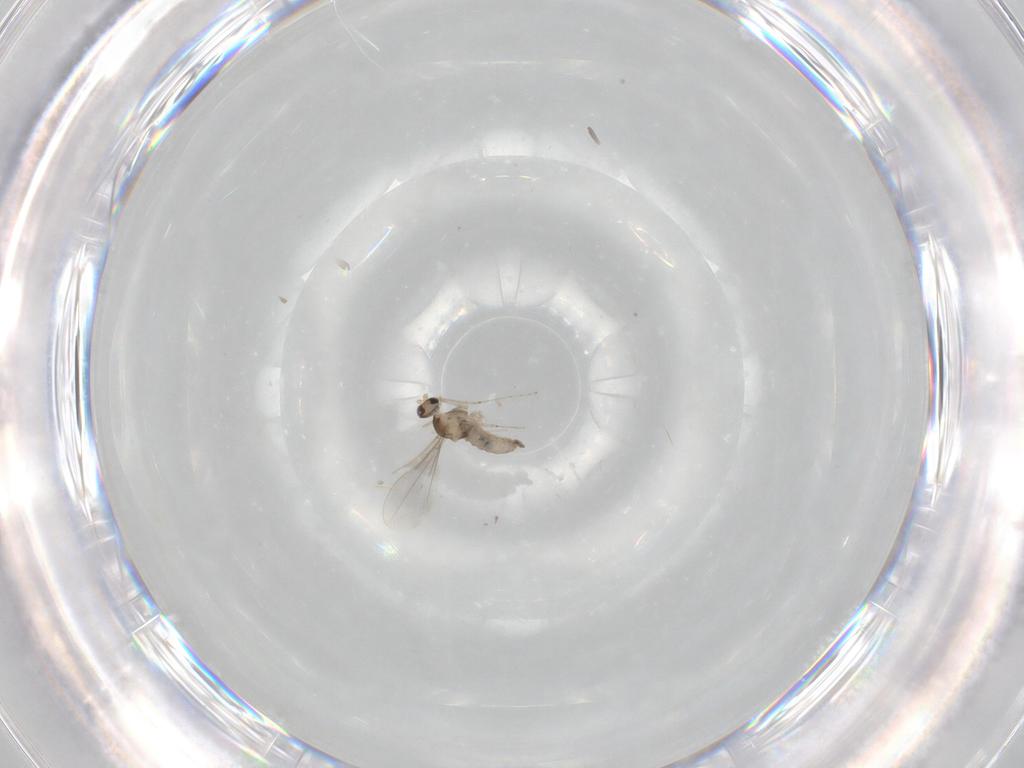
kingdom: Animalia
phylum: Arthropoda
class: Insecta
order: Diptera
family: Cecidomyiidae
